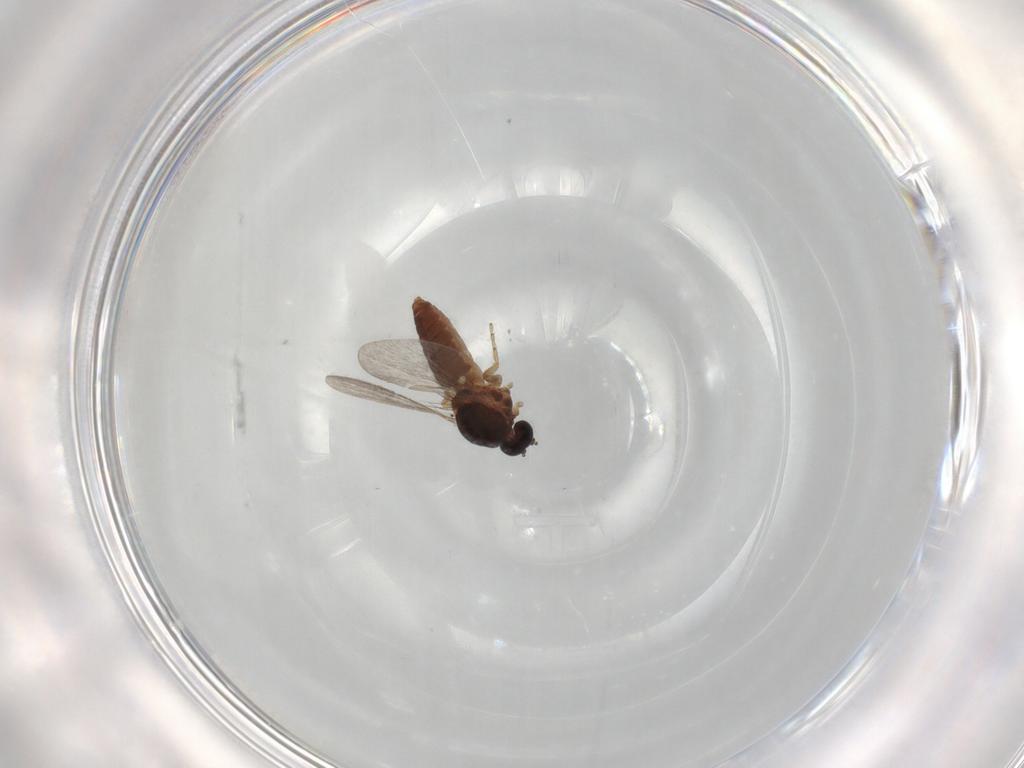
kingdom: Animalia
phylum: Arthropoda
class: Insecta
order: Diptera
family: Ceratopogonidae
